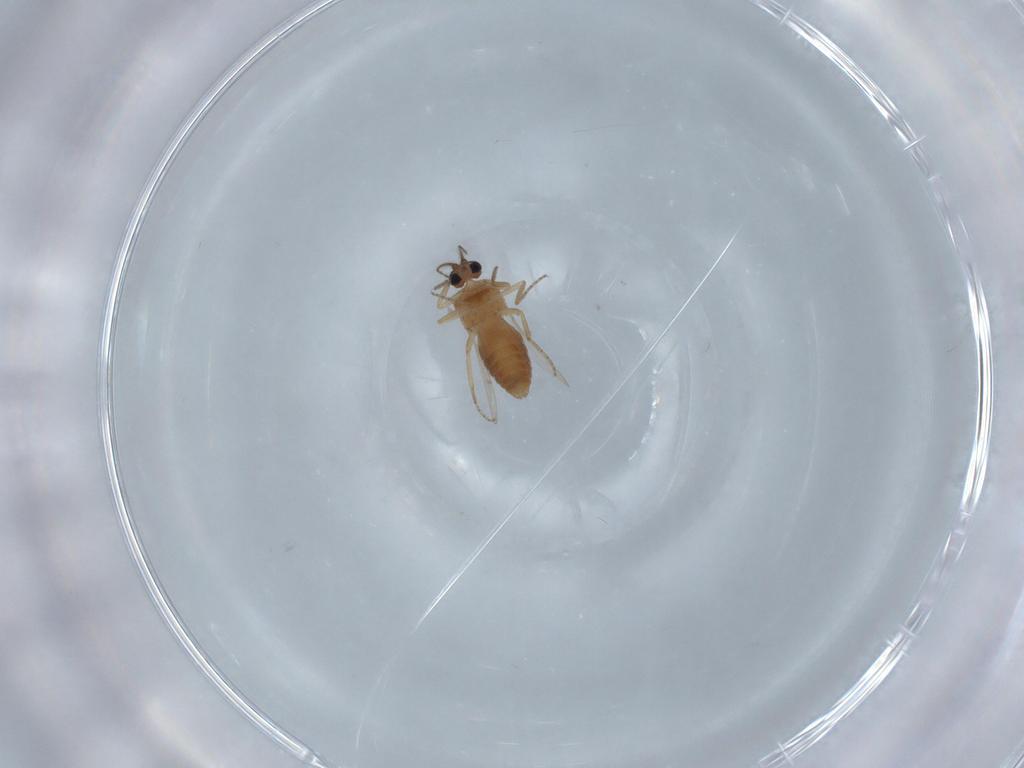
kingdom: Animalia
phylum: Arthropoda
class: Insecta
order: Diptera
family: Ceratopogonidae
